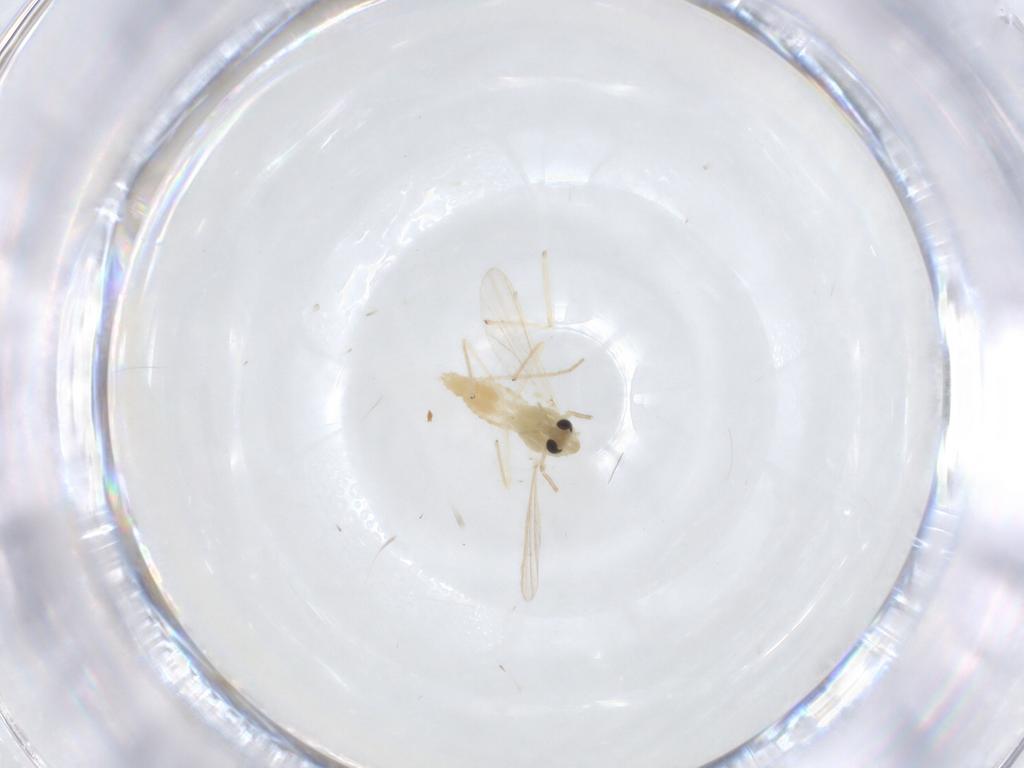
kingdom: Animalia
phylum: Arthropoda
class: Insecta
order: Diptera
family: Chironomidae
